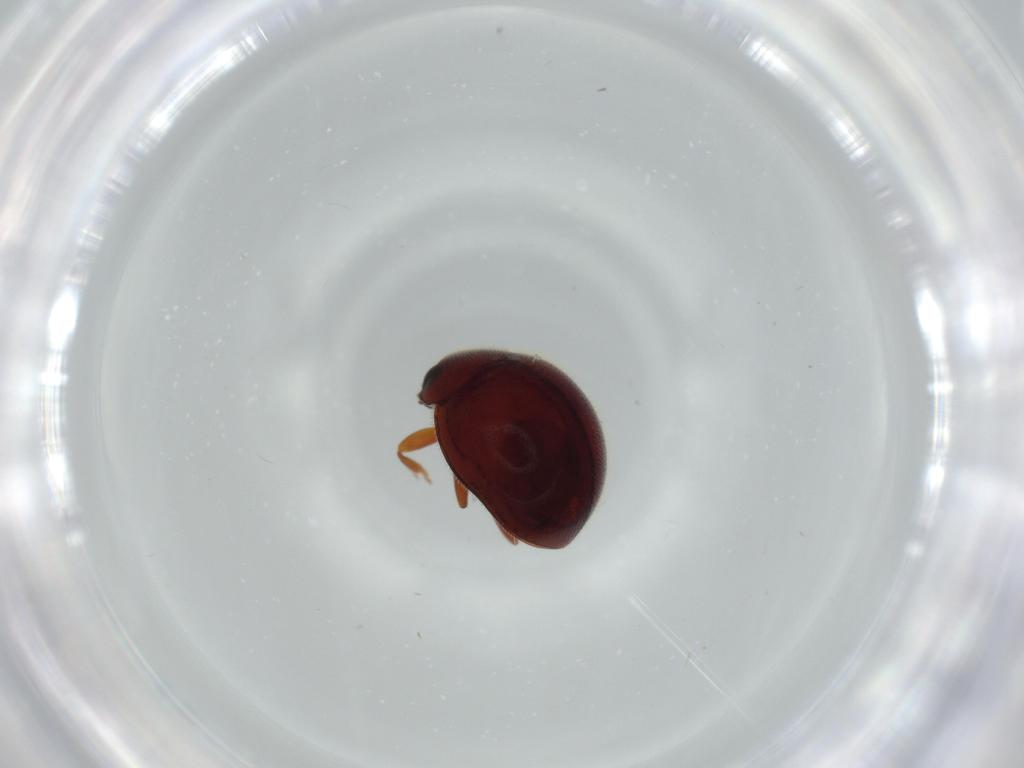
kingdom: Animalia
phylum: Arthropoda
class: Insecta
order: Coleoptera
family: Coccinellidae
